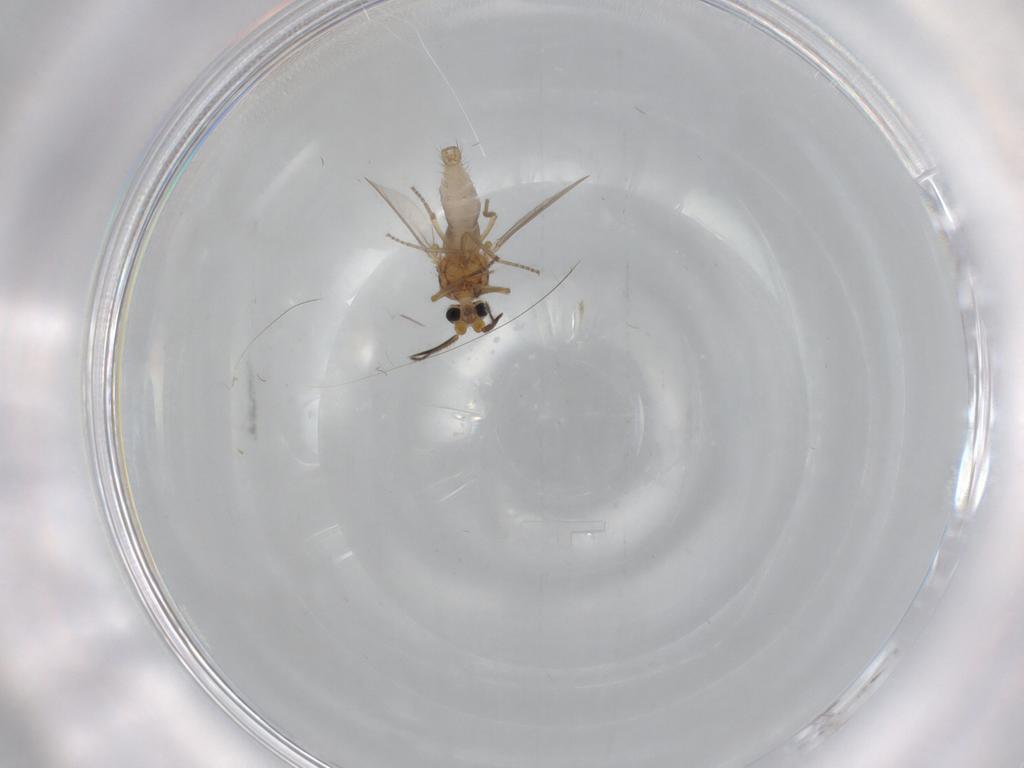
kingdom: Animalia
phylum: Arthropoda
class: Insecta
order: Diptera
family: Ceratopogonidae
